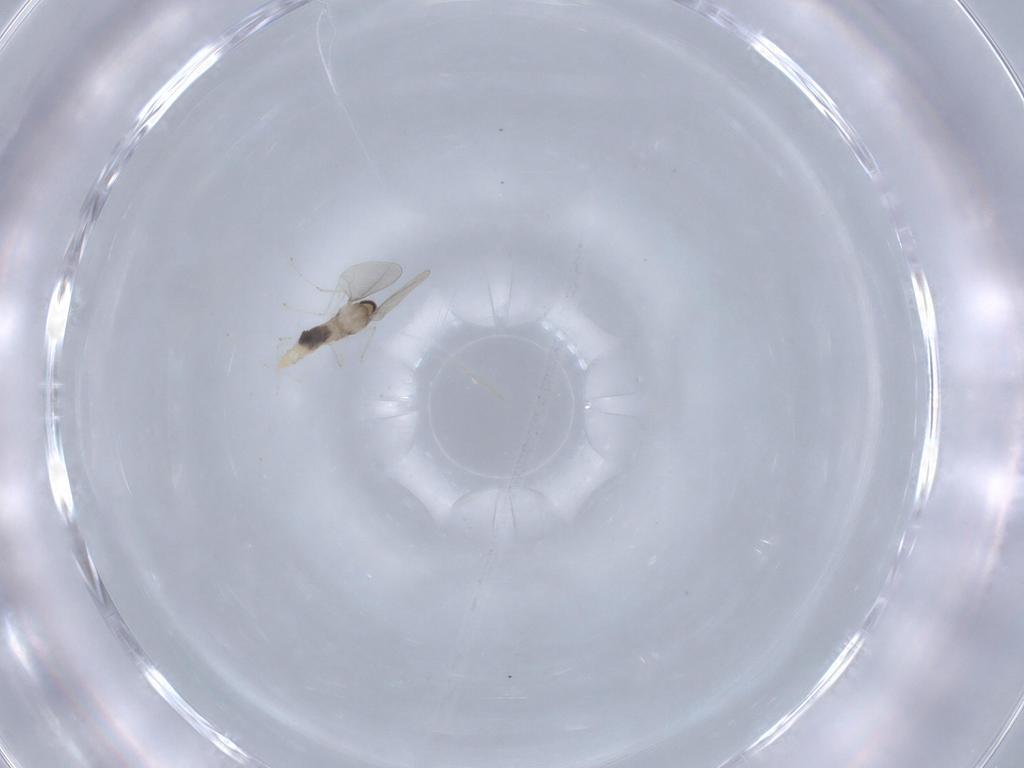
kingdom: Animalia
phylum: Arthropoda
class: Insecta
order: Diptera
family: Cecidomyiidae
